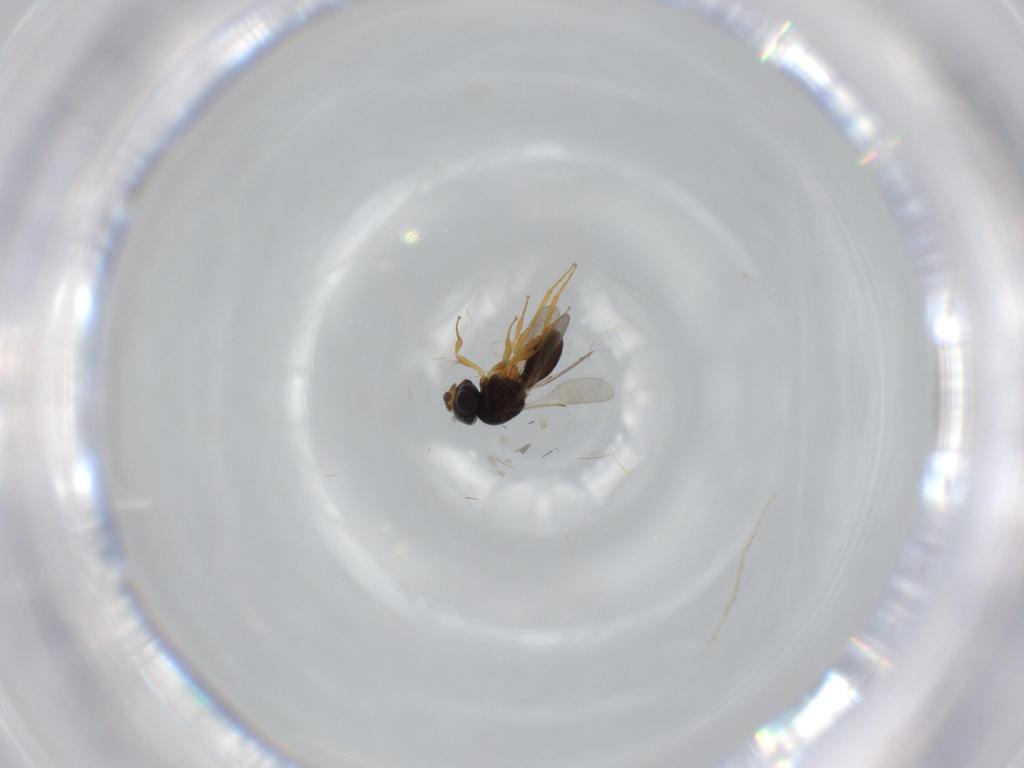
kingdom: Animalia
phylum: Arthropoda
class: Insecta
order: Hymenoptera
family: Scelionidae
